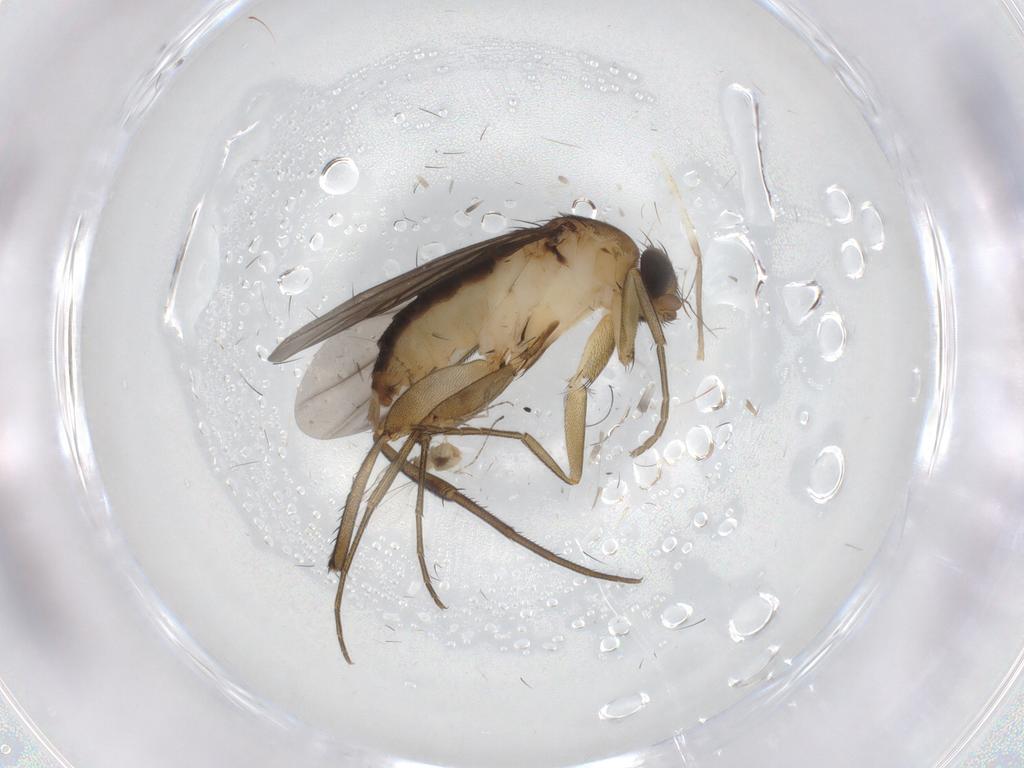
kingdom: Animalia
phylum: Arthropoda
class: Insecta
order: Diptera
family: Cecidomyiidae
